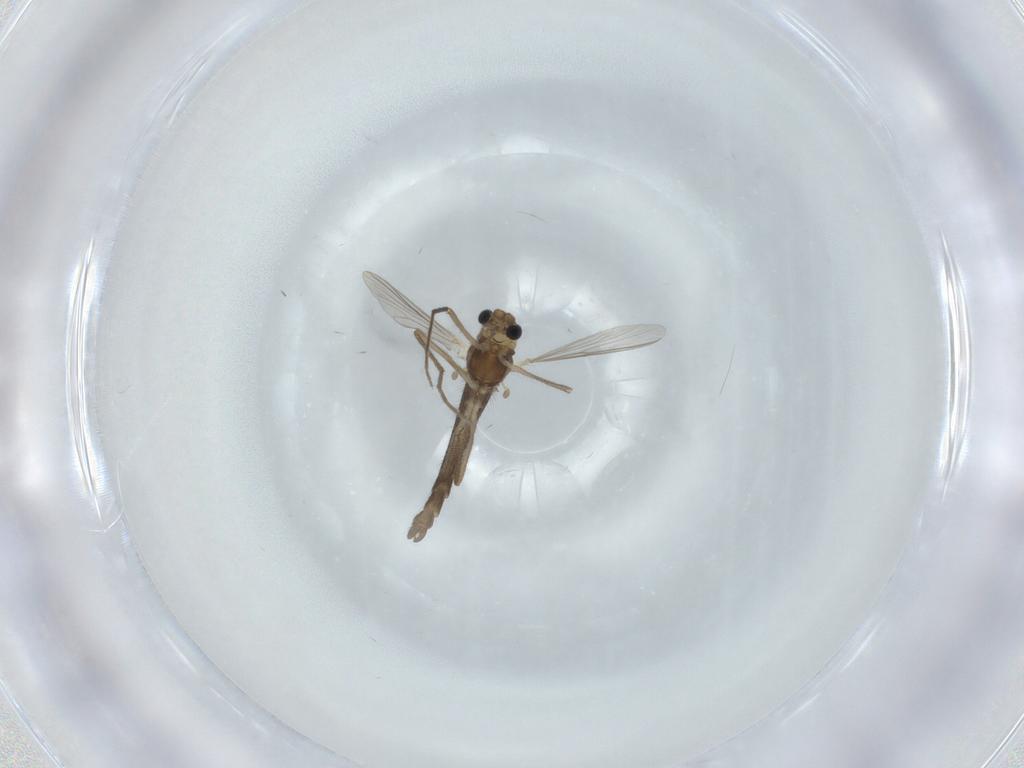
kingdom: Animalia
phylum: Arthropoda
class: Insecta
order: Diptera
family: Chironomidae
